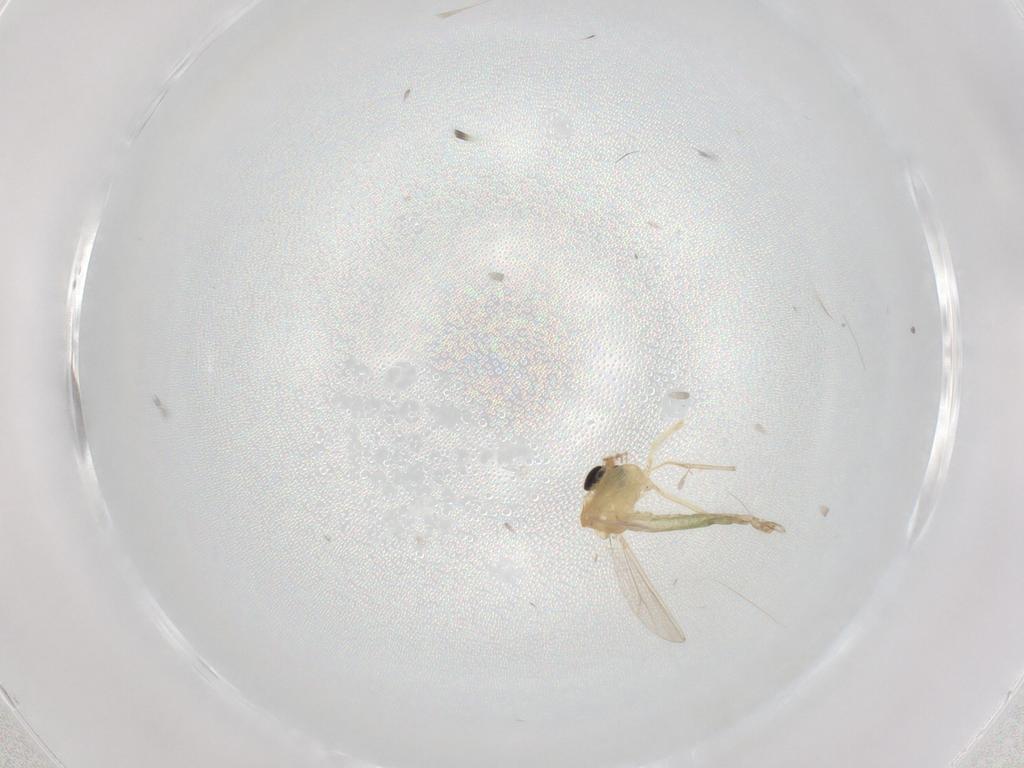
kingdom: Animalia
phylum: Arthropoda
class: Insecta
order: Diptera
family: Chironomidae
